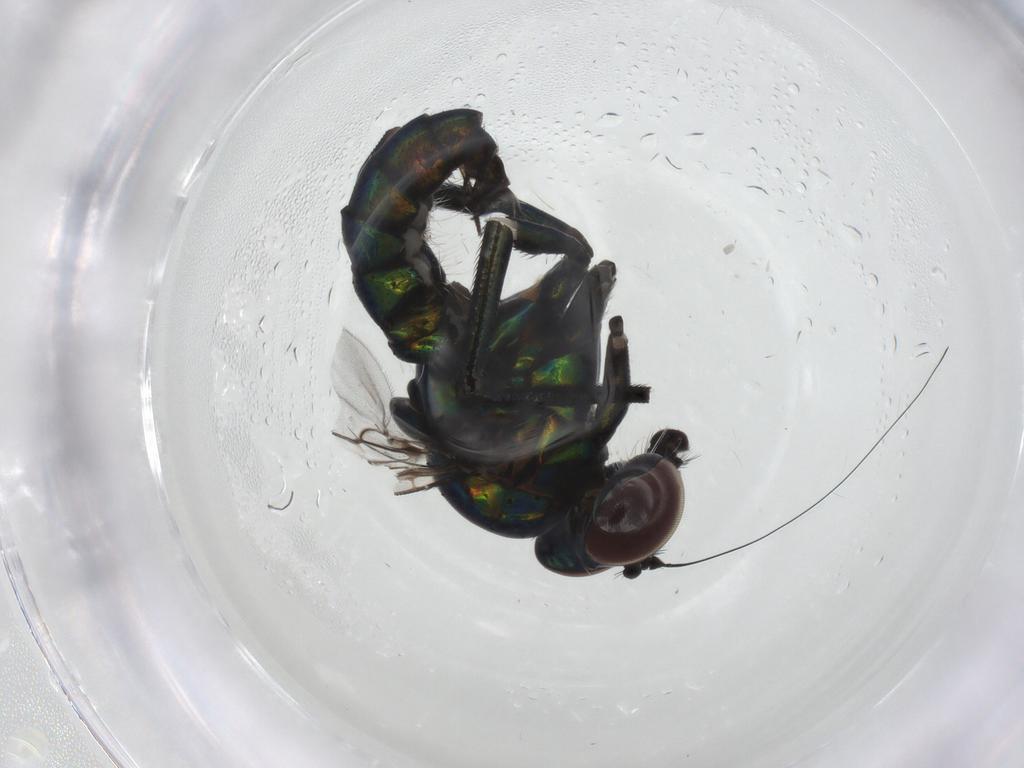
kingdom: Animalia
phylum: Arthropoda
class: Insecta
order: Diptera
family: Dolichopodidae
